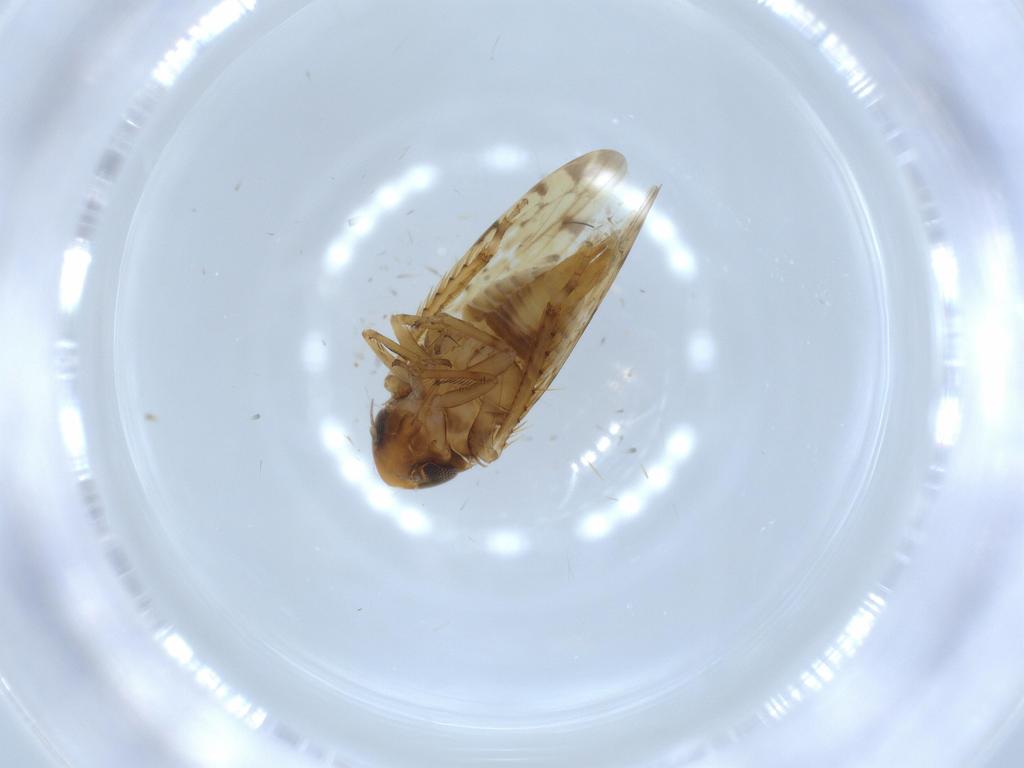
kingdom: Animalia
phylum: Arthropoda
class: Insecta
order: Hemiptera
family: Cicadellidae
